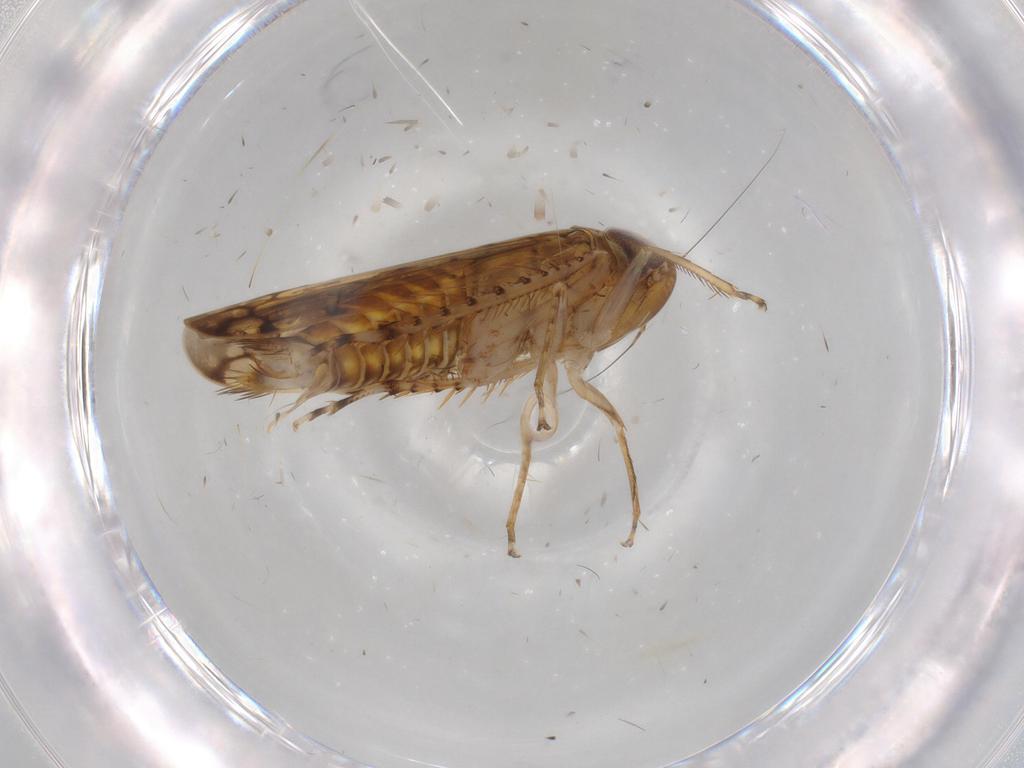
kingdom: Animalia
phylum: Arthropoda
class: Insecta
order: Hemiptera
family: Cicadellidae
